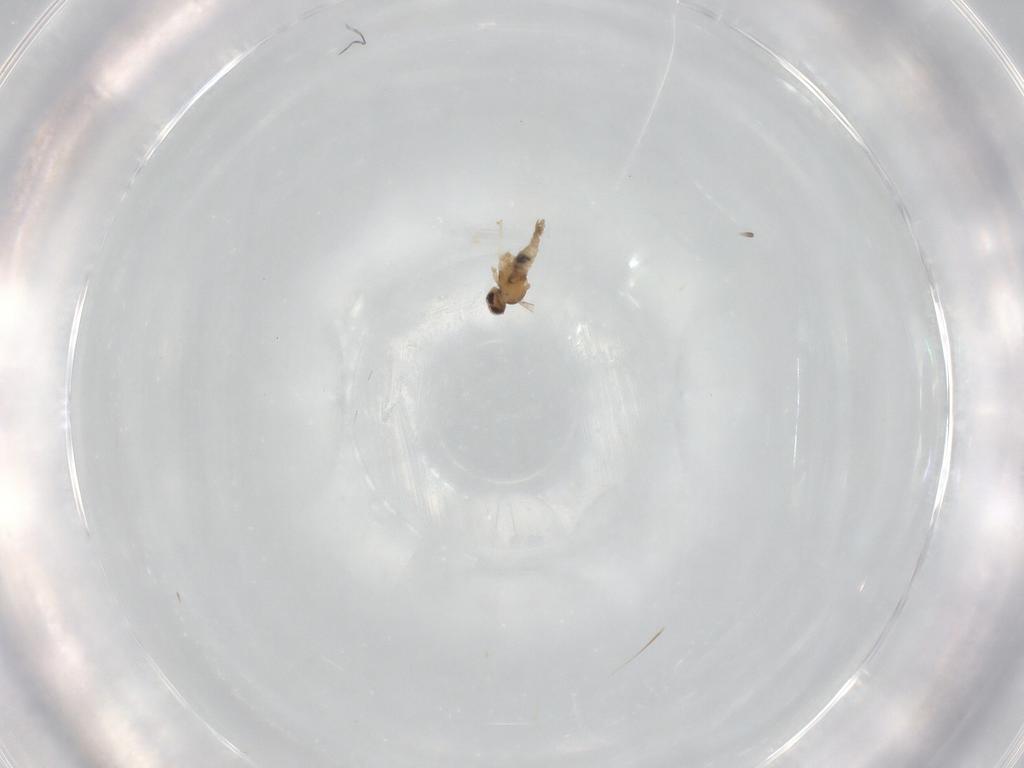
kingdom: Animalia
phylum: Arthropoda
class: Insecta
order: Diptera
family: Cecidomyiidae
